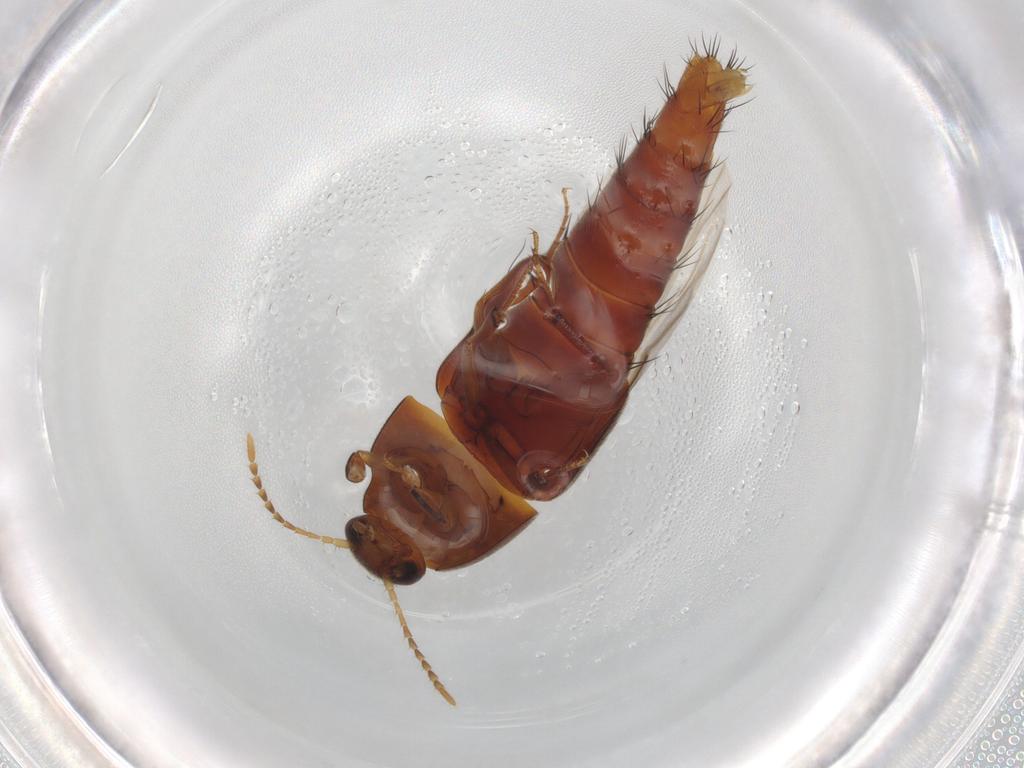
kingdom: Animalia
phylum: Arthropoda
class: Insecta
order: Coleoptera
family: Staphylinidae
